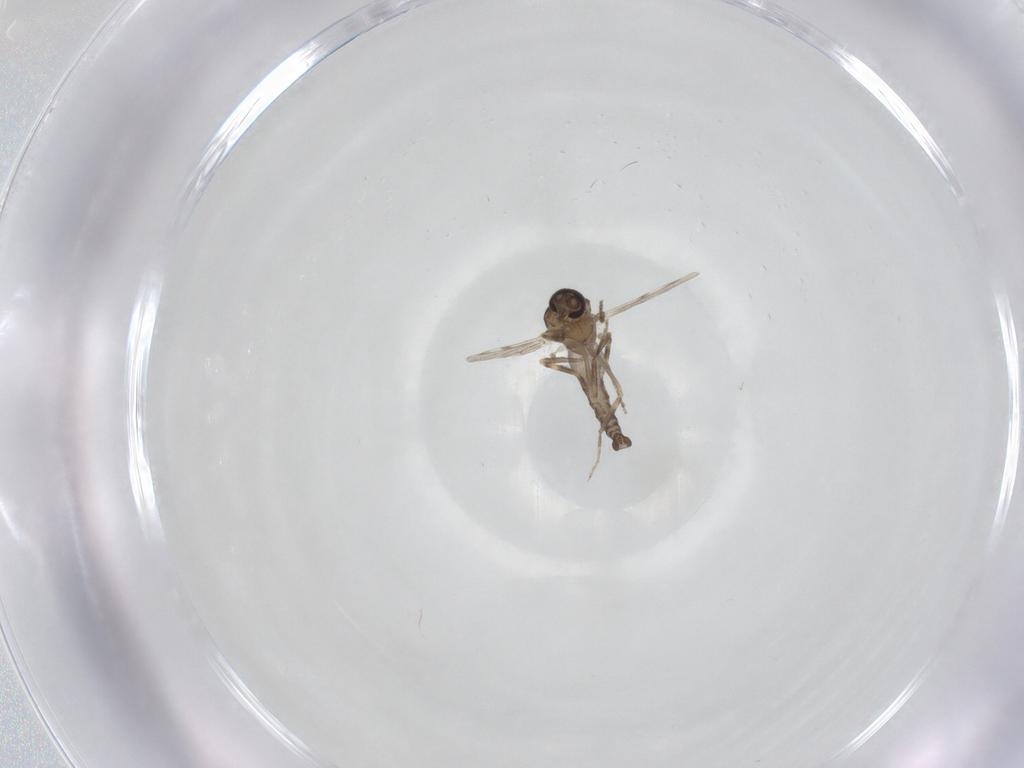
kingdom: Animalia
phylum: Arthropoda
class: Insecta
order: Diptera
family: Ceratopogonidae
